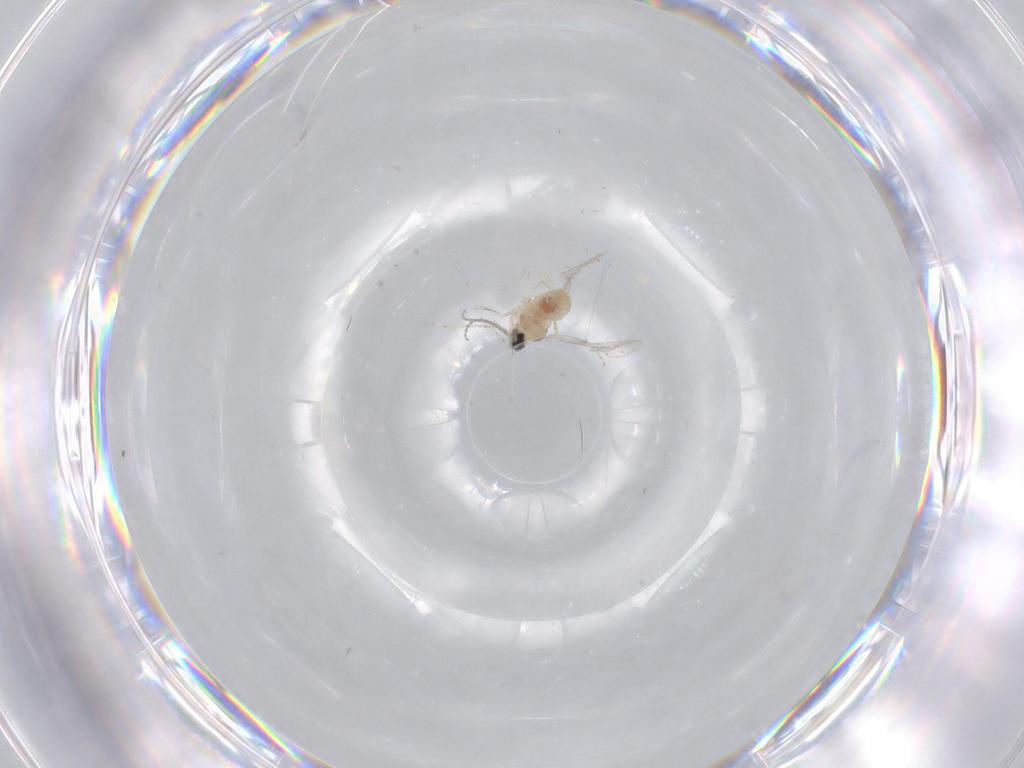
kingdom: Animalia
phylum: Arthropoda
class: Insecta
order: Diptera
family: Cecidomyiidae
